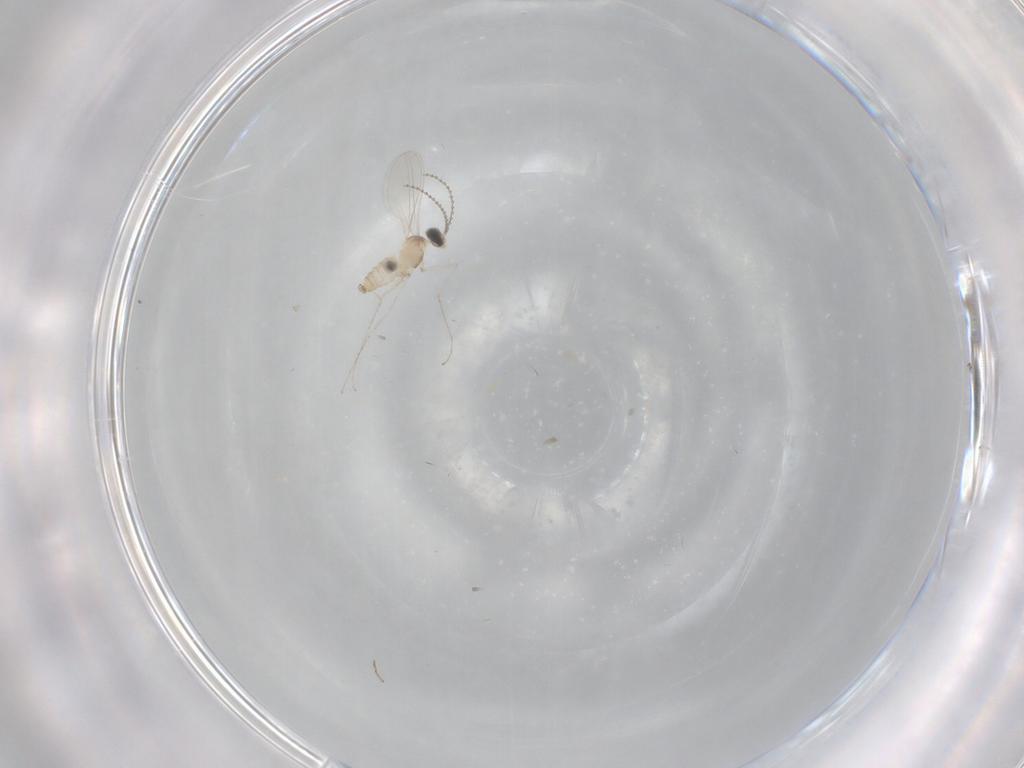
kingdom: Animalia
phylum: Arthropoda
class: Insecta
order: Diptera
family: Cecidomyiidae
